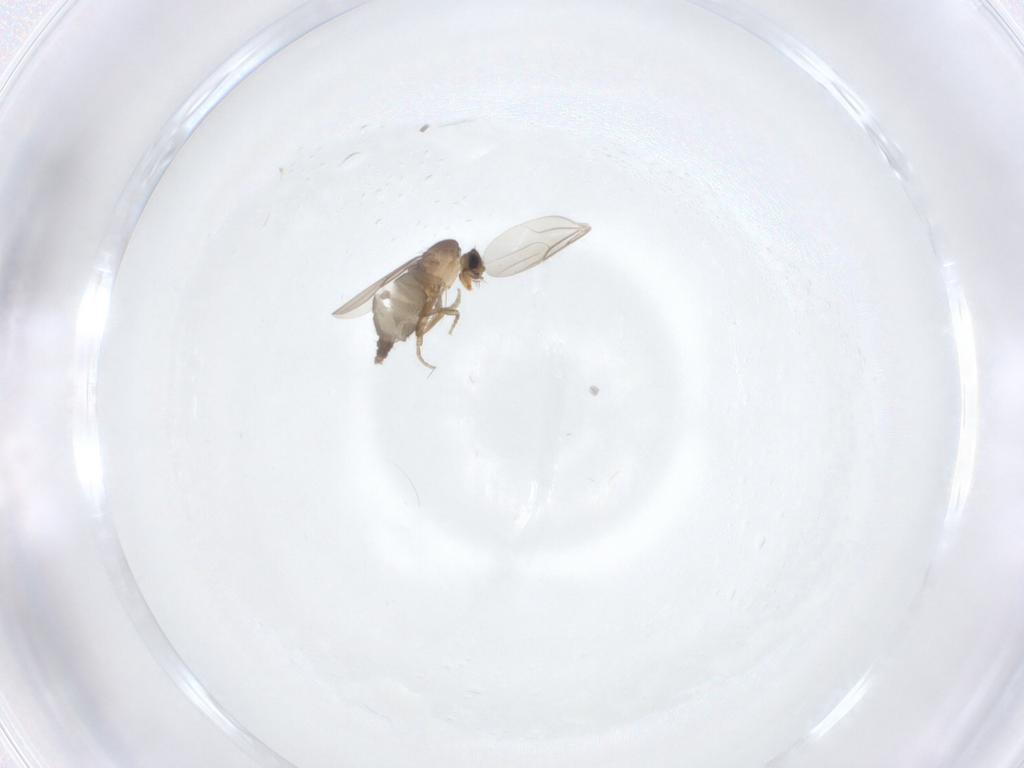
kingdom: Animalia
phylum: Arthropoda
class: Insecta
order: Diptera
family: Phoridae
